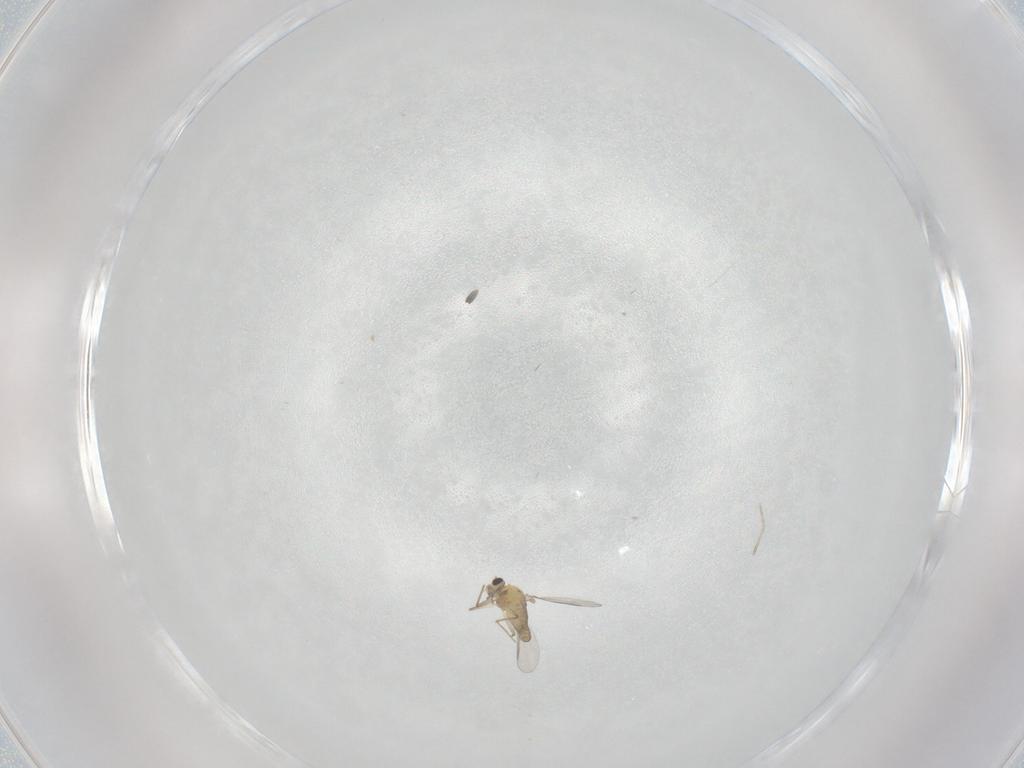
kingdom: Animalia
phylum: Arthropoda
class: Insecta
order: Diptera
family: Chironomidae
